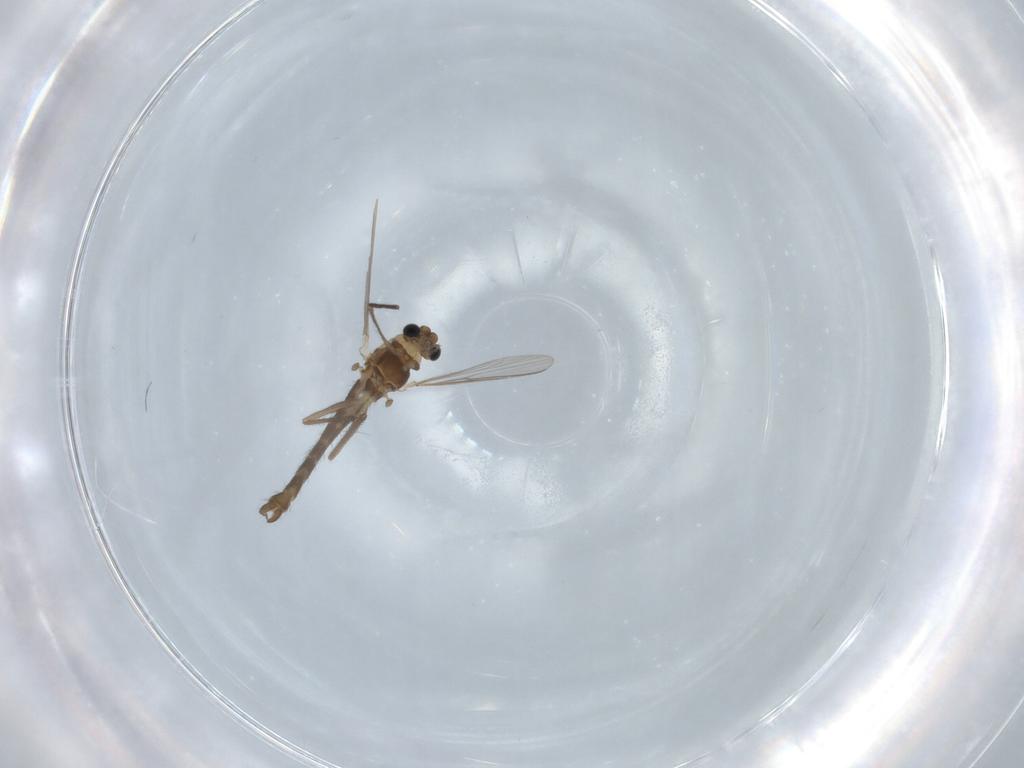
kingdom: Animalia
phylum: Arthropoda
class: Insecta
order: Diptera
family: Chironomidae
